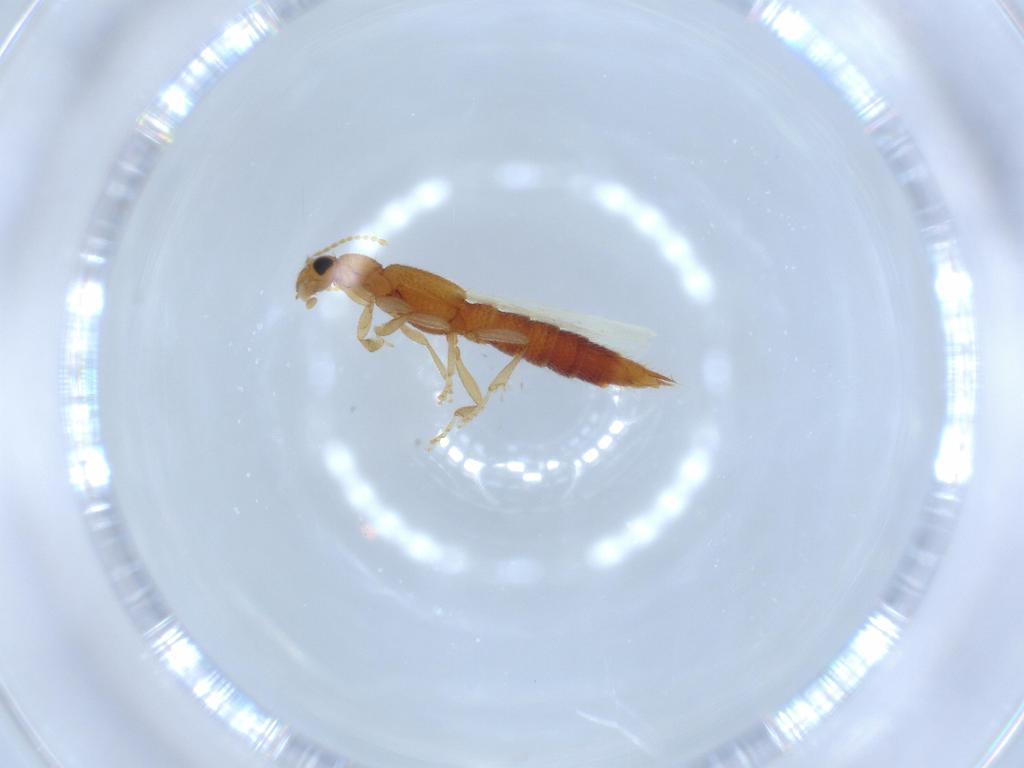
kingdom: Animalia
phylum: Arthropoda
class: Insecta
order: Coleoptera
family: Staphylinidae
